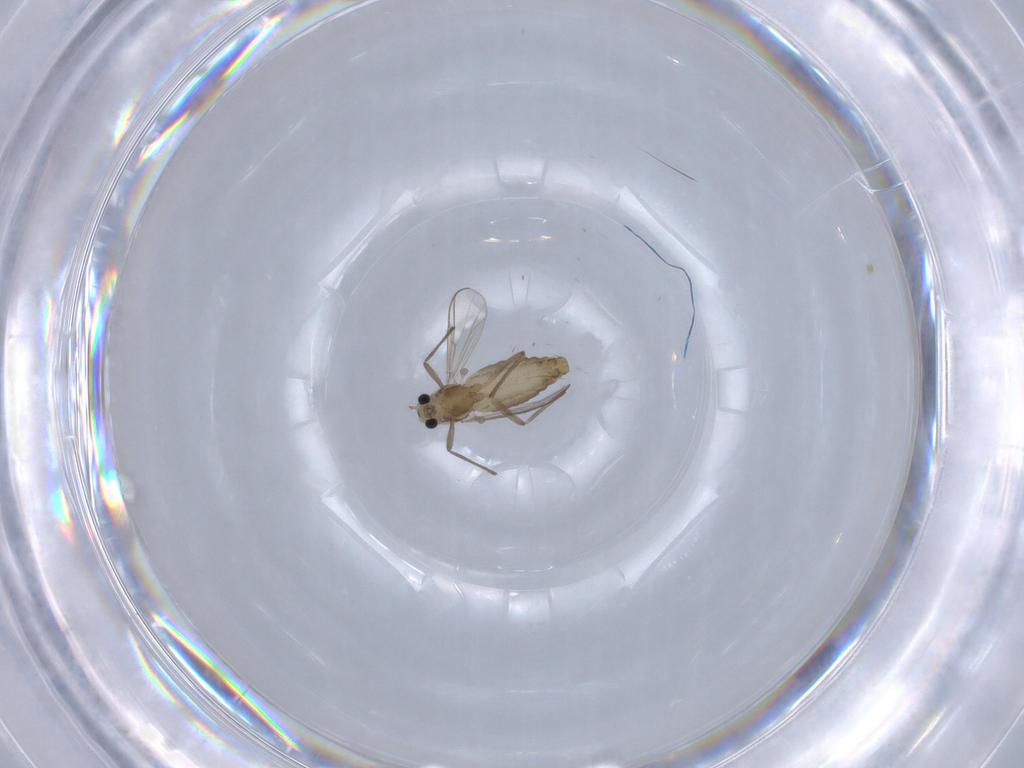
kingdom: Animalia
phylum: Arthropoda
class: Insecta
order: Diptera
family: Chironomidae
